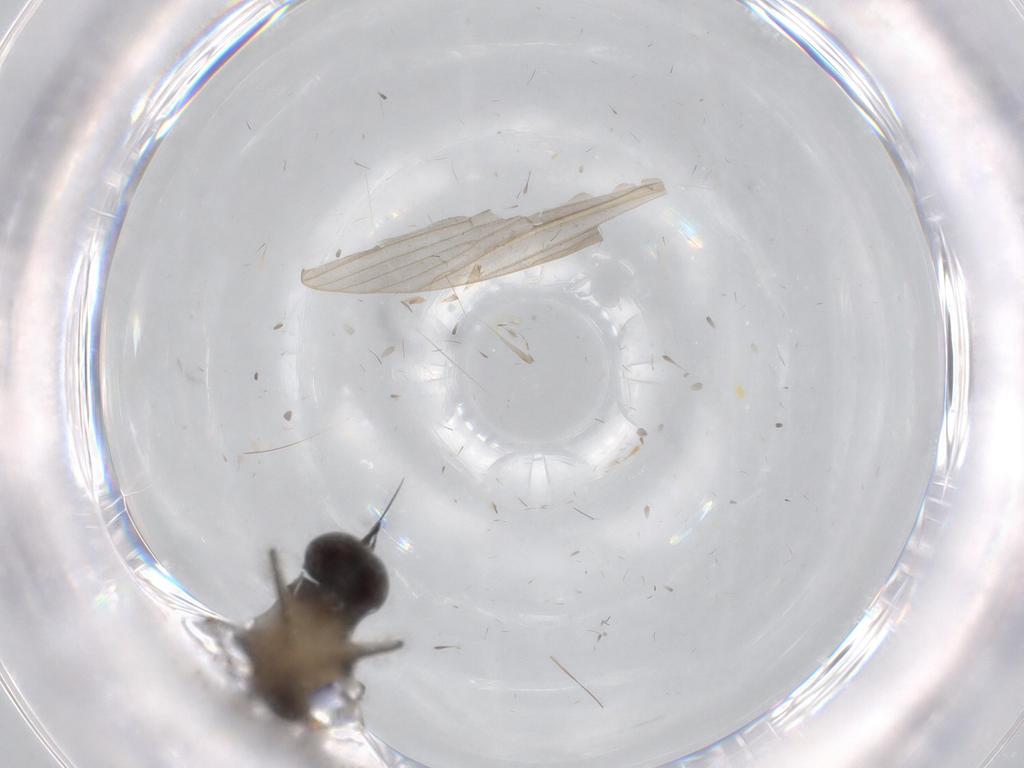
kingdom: Animalia
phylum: Arthropoda
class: Insecta
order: Diptera
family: Dolichopodidae
